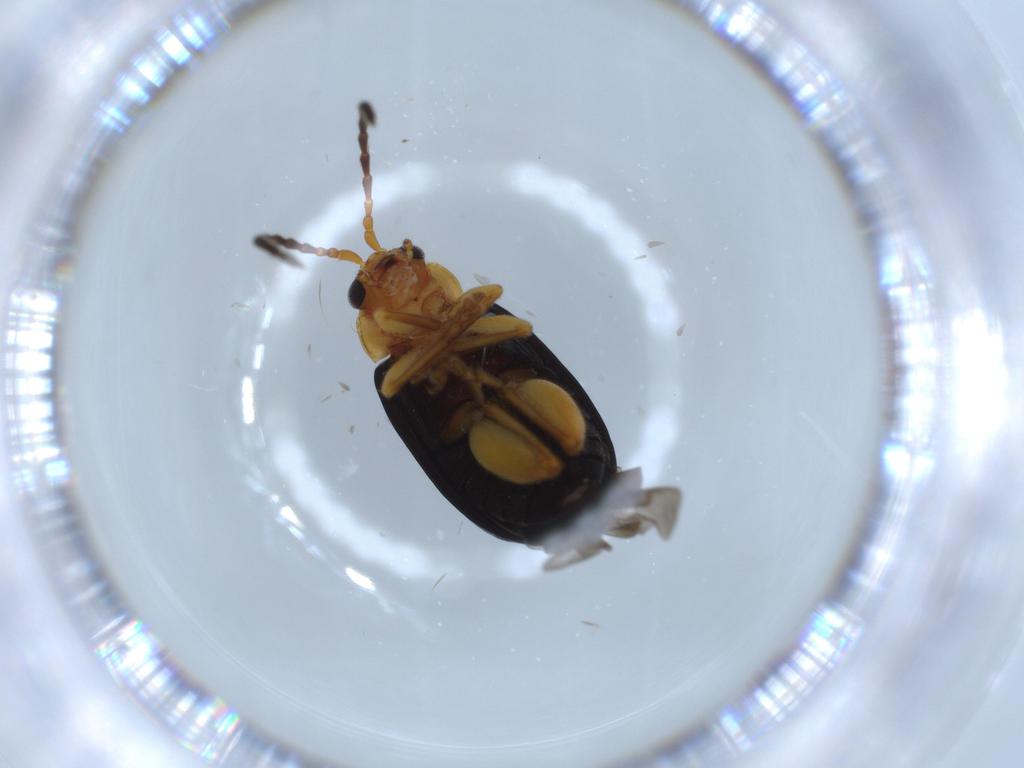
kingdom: Animalia
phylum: Arthropoda
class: Insecta
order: Coleoptera
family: Chrysomelidae
